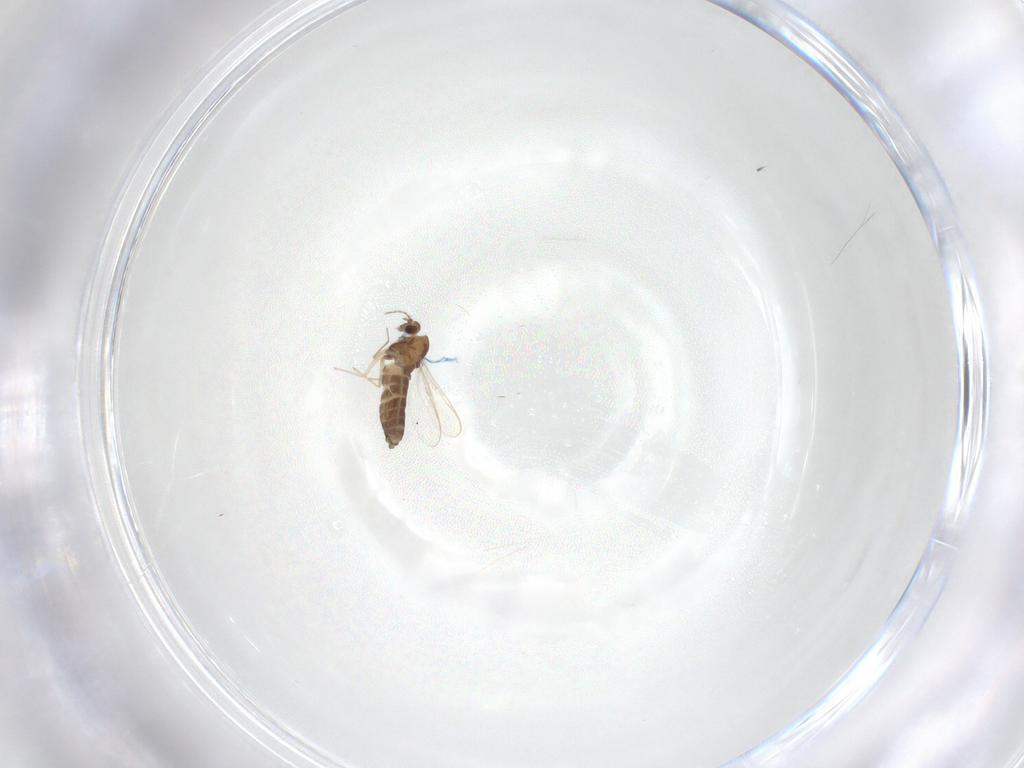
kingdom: Animalia
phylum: Arthropoda
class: Insecta
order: Diptera
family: Chironomidae
